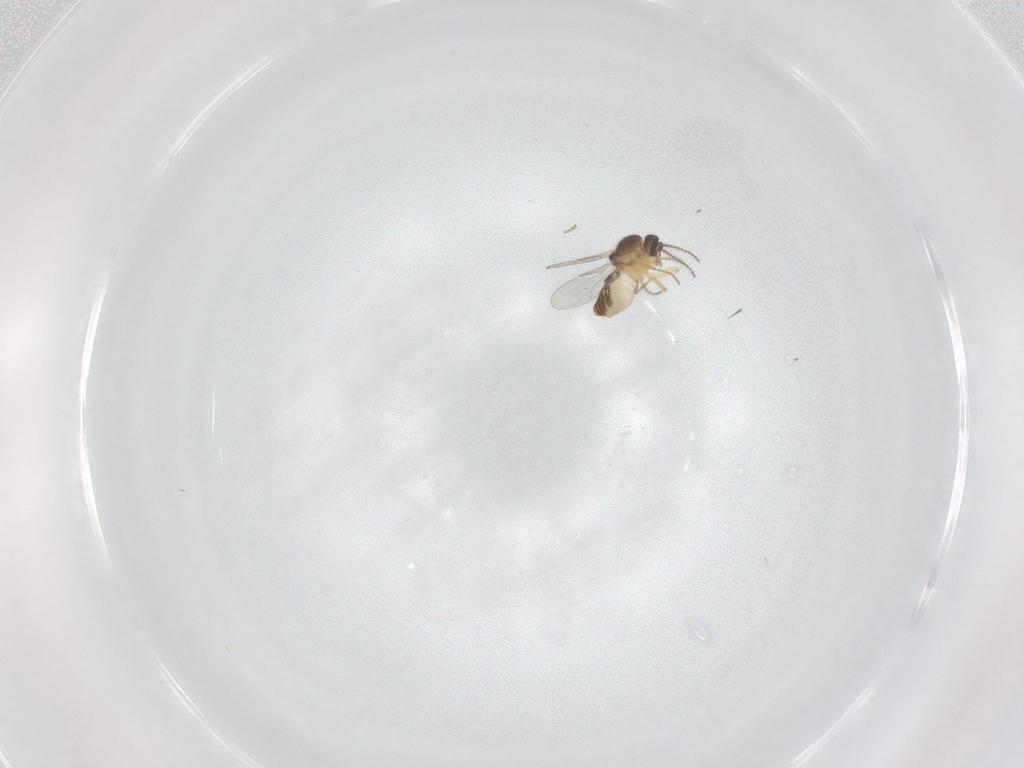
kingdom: Animalia
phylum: Arthropoda
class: Insecta
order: Diptera
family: Ceratopogonidae
